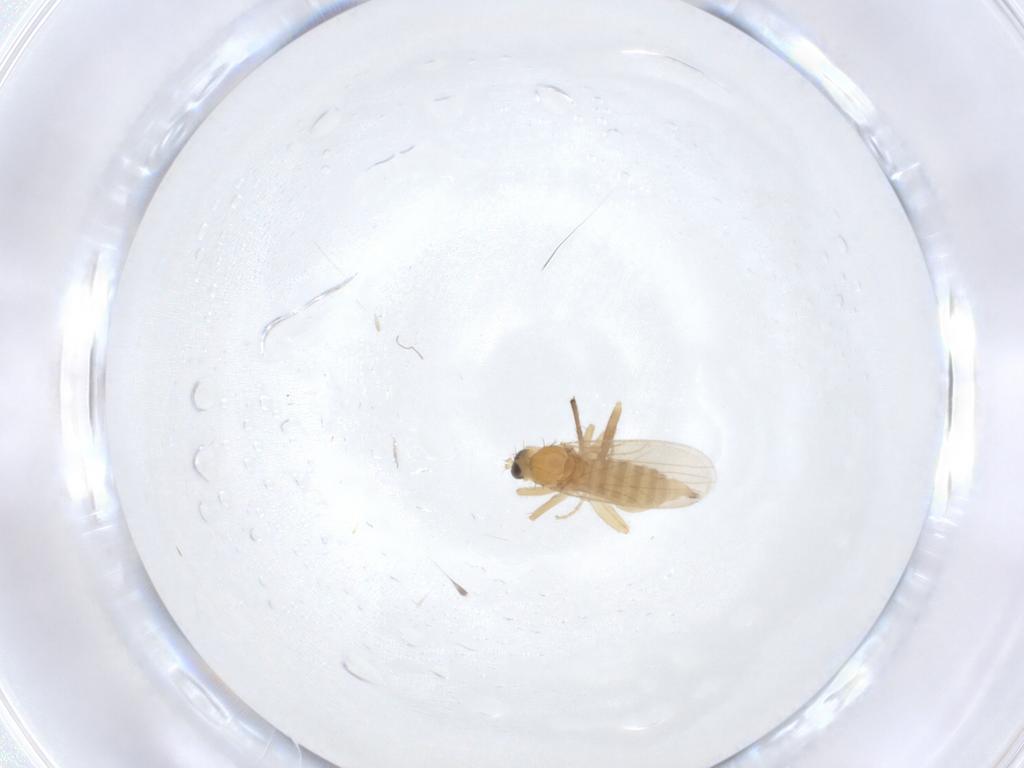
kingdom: Animalia
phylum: Arthropoda
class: Insecta
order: Diptera
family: Hybotidae
